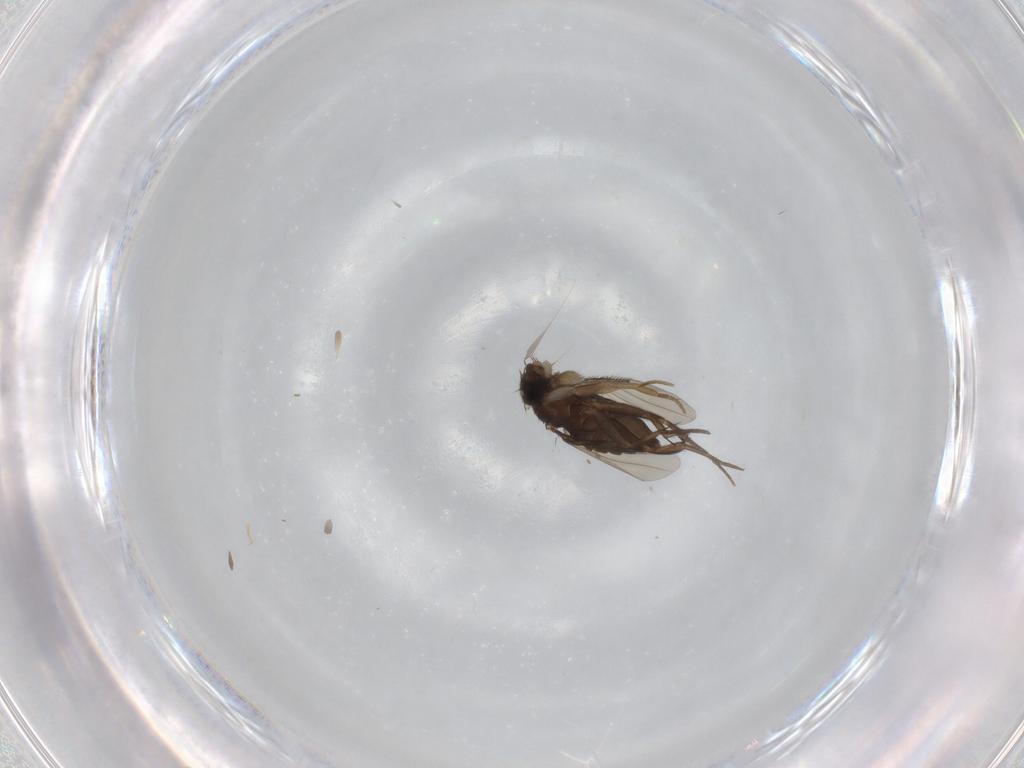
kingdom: Animalia
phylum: Arthropoda
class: Insecta
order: Diptera
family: Phoridae
